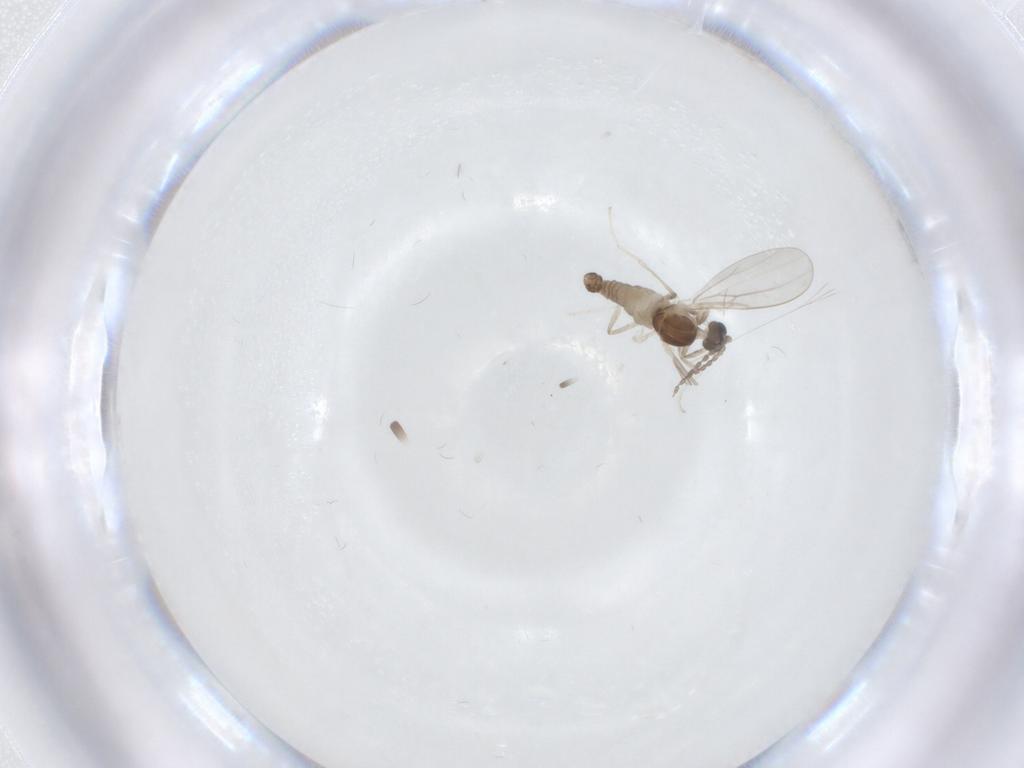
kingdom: Animalia
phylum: Arthropoda
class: Insecta
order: Diptera
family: Cecidomyiidae
